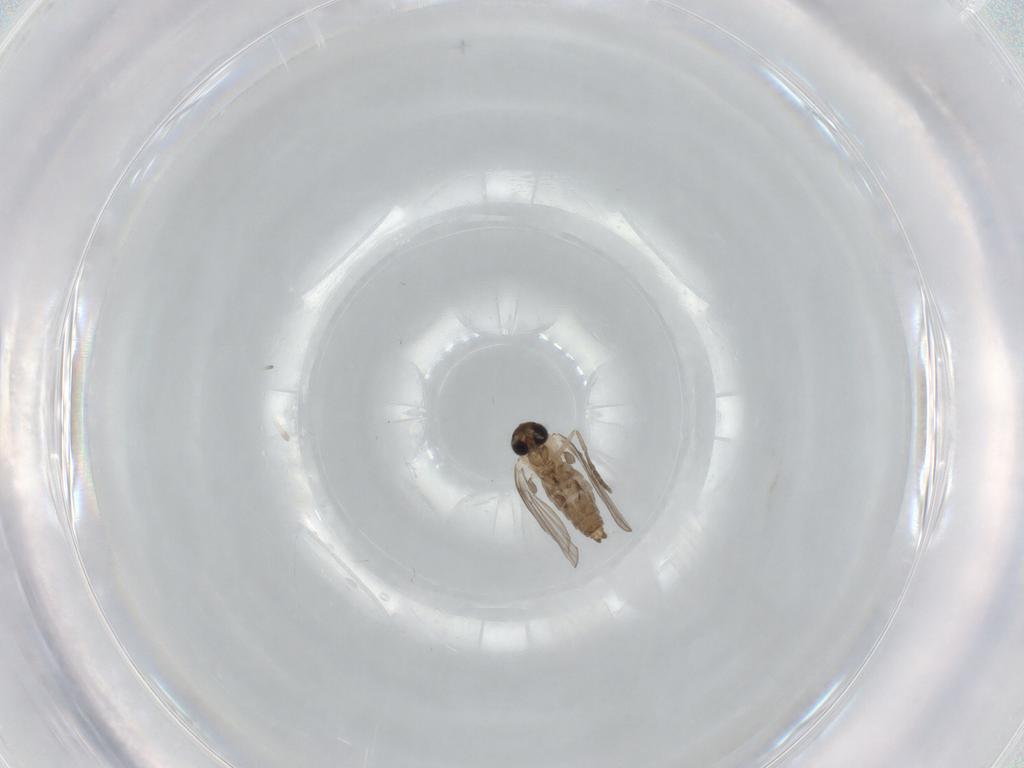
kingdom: Animalia
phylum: Arthropoda
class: Insecta
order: Diptera
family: Psychodidae
